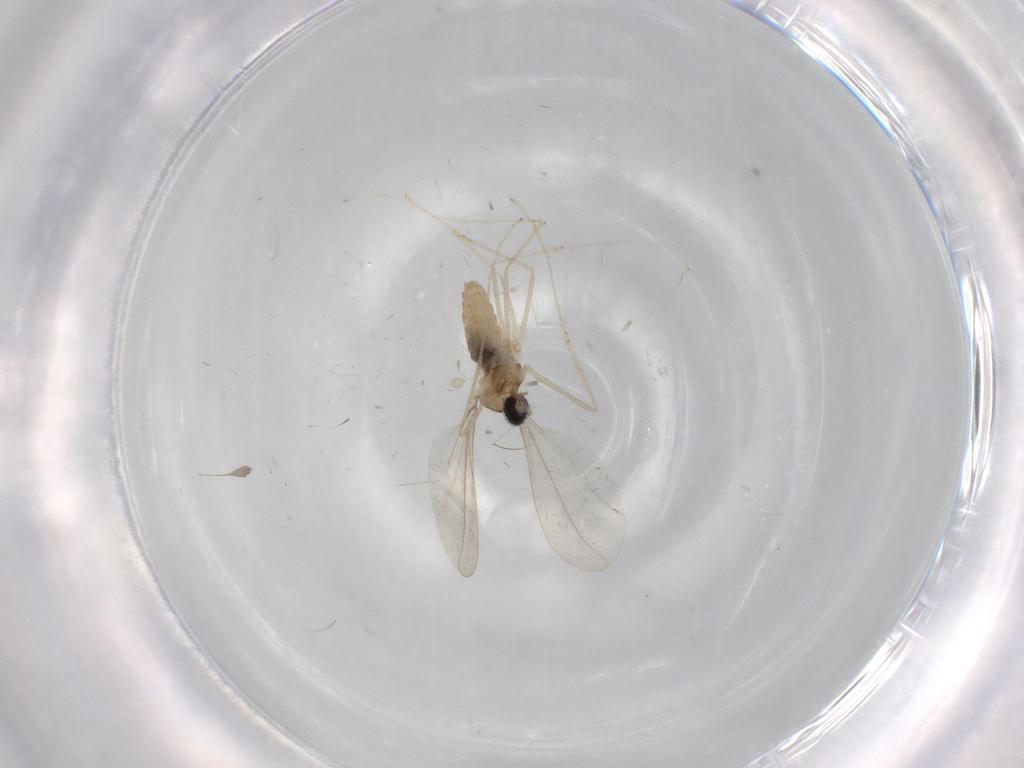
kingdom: Animalia
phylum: Arthropoda
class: Insecta
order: Diptera
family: Cecidomyiidae
